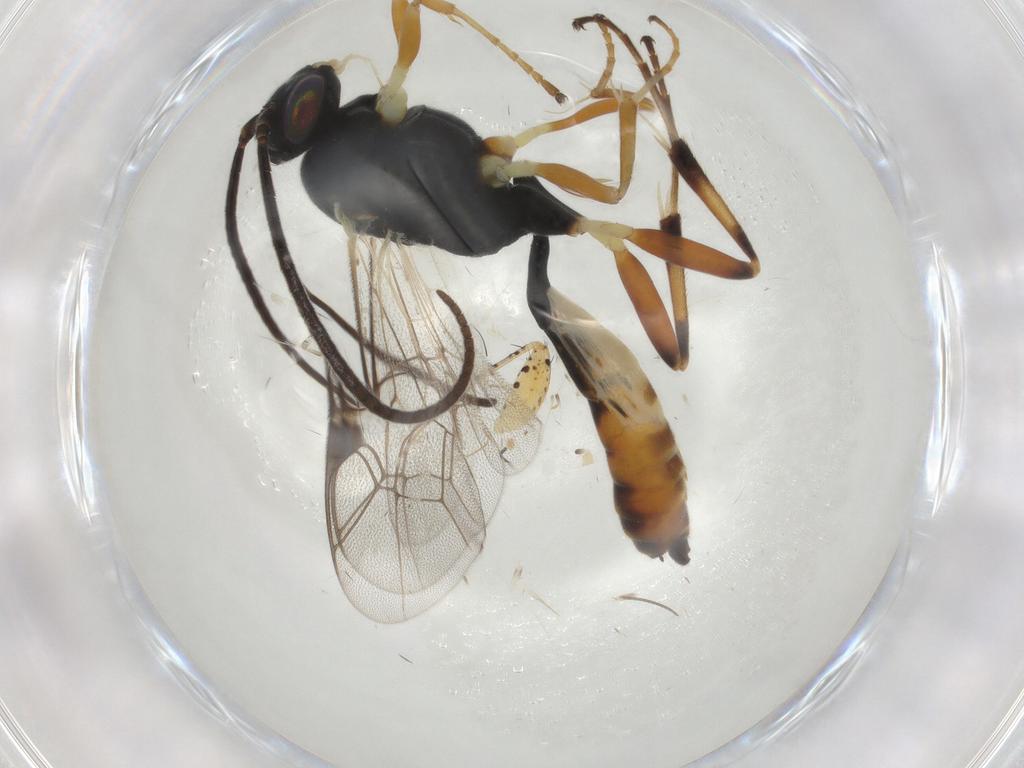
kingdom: Animalia
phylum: Arthropoda
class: Insecta
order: Hymenoptera
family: Ichneumonidae
